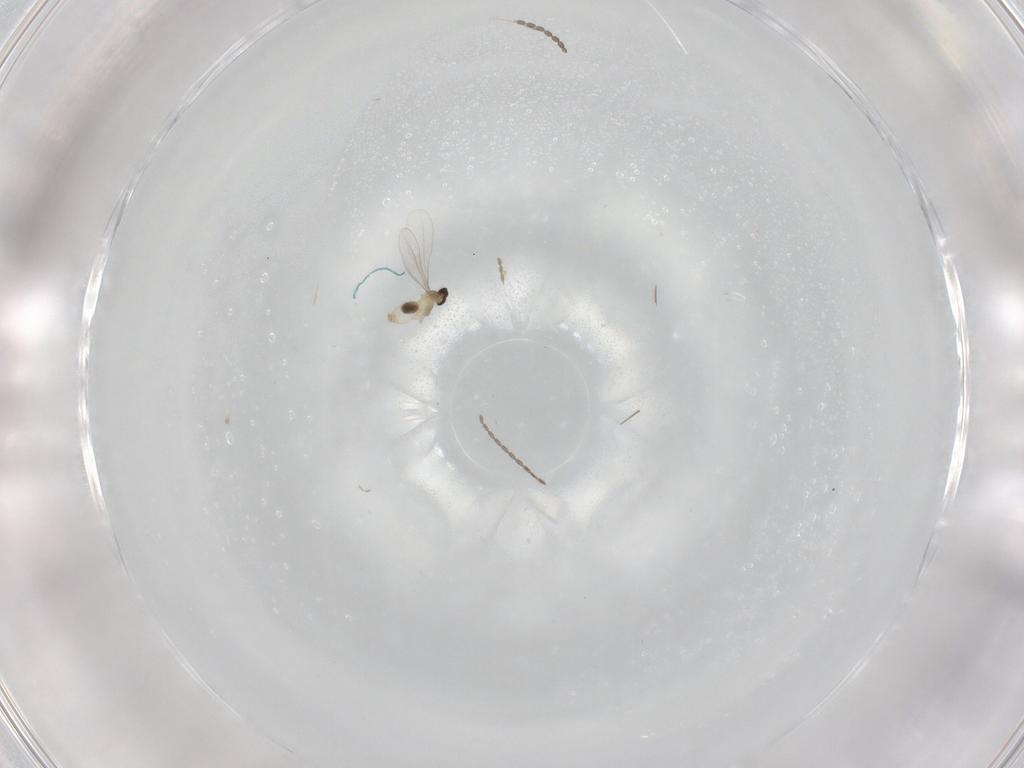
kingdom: Animalia
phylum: Arthropoda
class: Insecta
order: Diptera
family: Cecidomyiidae
